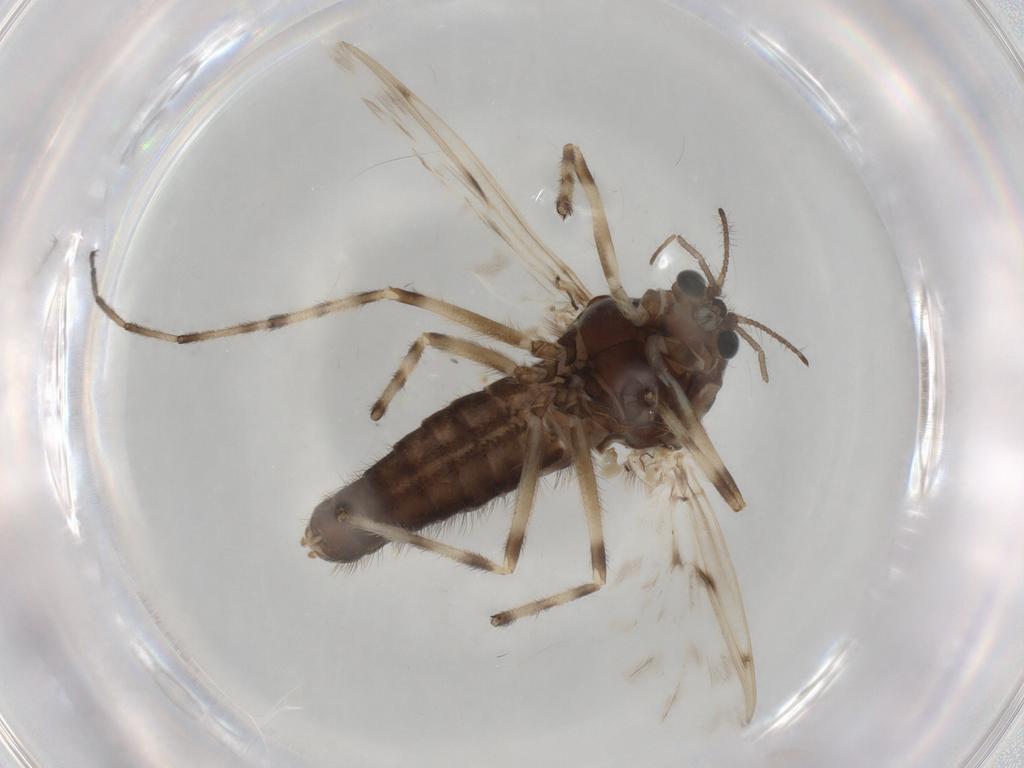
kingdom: Animalia
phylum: Arthropoda
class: Insecta
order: Diptera
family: Chironomidae
